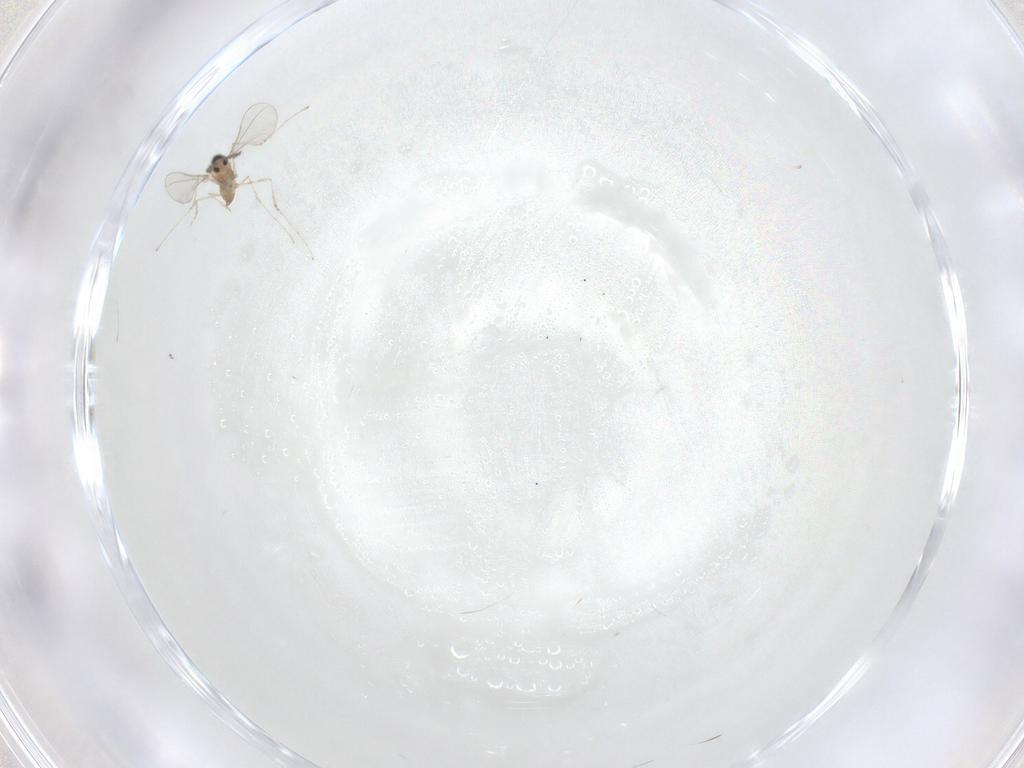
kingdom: Animalia
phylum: Arthropoda
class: Insecta
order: Diptera
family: Cecidomyiidae
